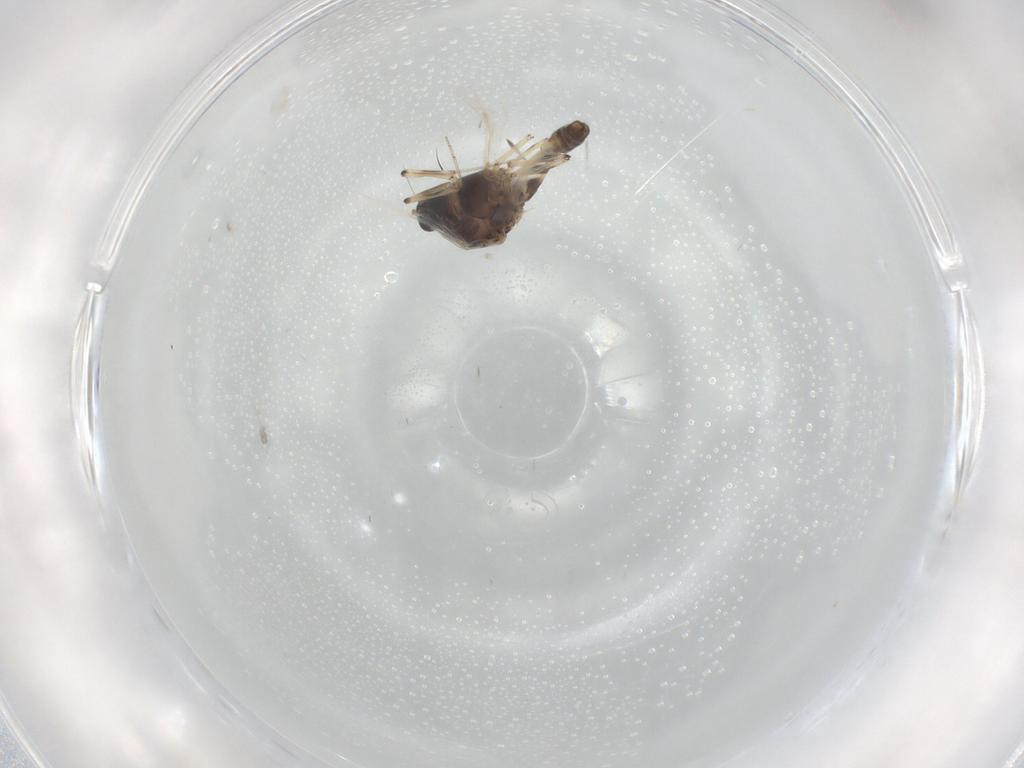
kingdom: Animalia
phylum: Arthropoda
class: Insecta
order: Diptera
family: Ceratopogonidae
